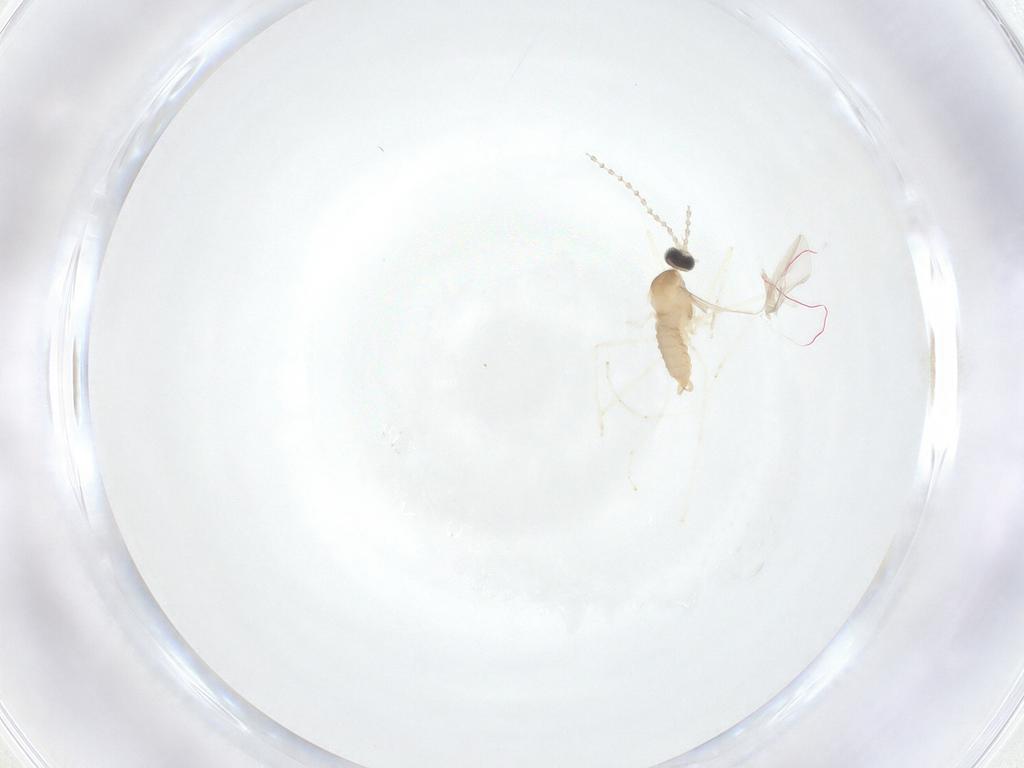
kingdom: Animalia
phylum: Arthropoda
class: Insecta
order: Diptera
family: Cecidomyiidae
